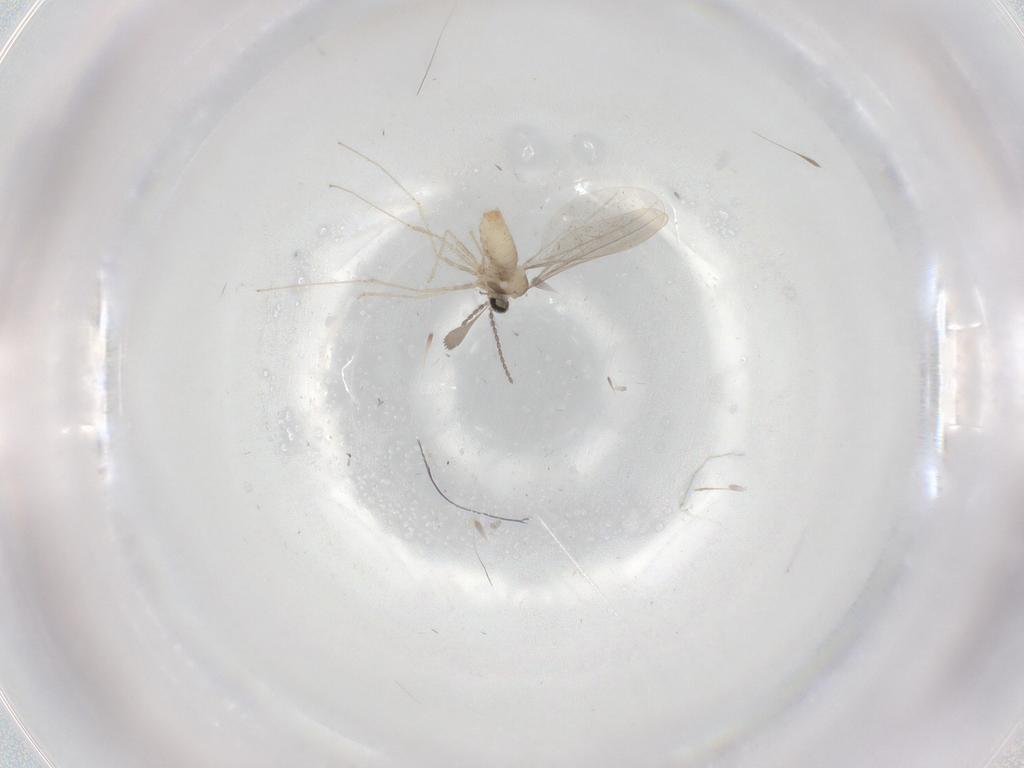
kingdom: Animalia
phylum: Arthropoda
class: Insecta
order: Diptera
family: Cecidomyiidae
